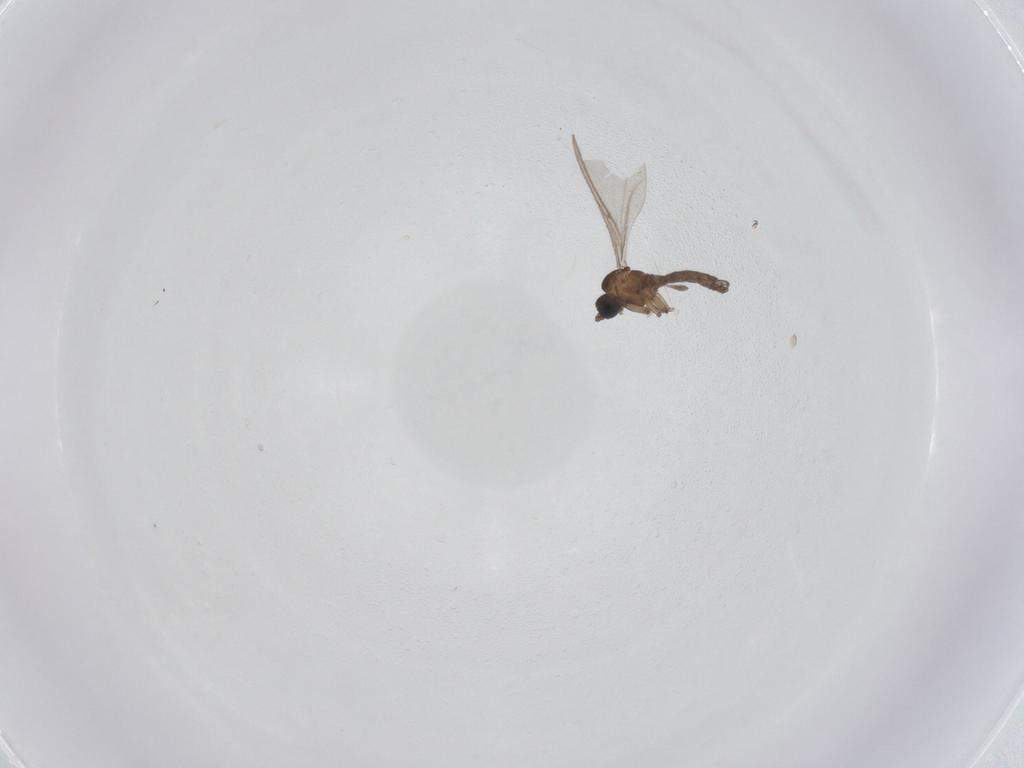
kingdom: Animalia
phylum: Arthropoda
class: Insecta
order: Diptera
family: Sciaridae
